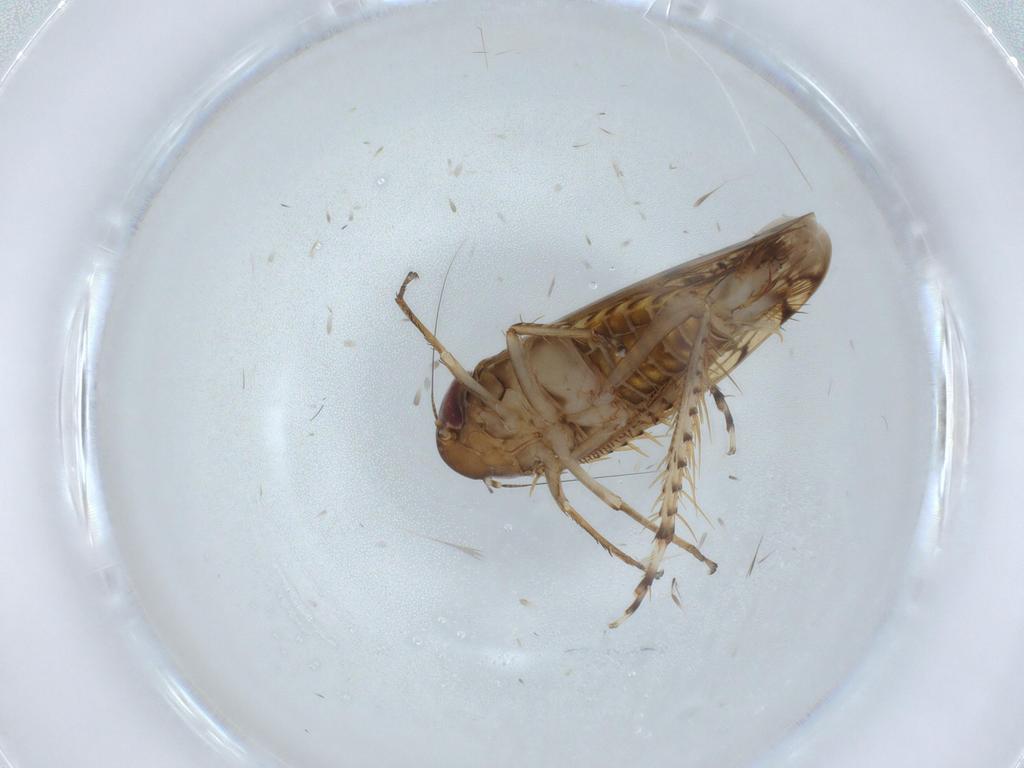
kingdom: Animalia
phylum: Arthropoda
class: Insecta
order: Hemiptera
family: Cicadellidae
